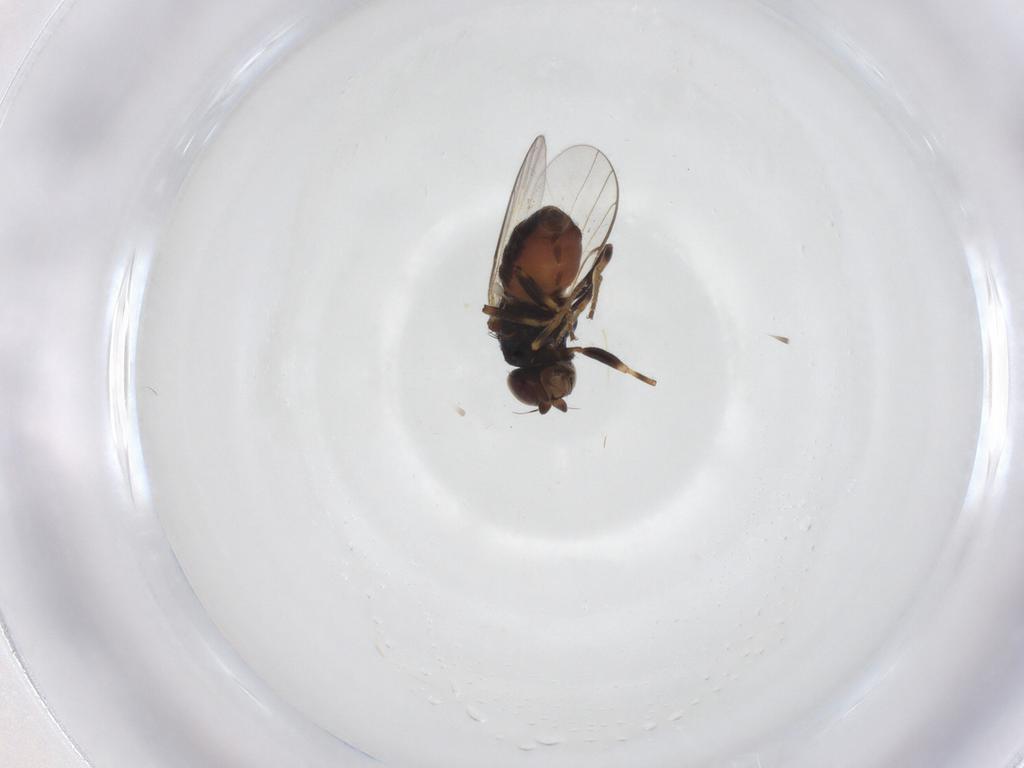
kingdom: Animalia
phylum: Arthropoda
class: Insecta
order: Diptera
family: Chloropidae
